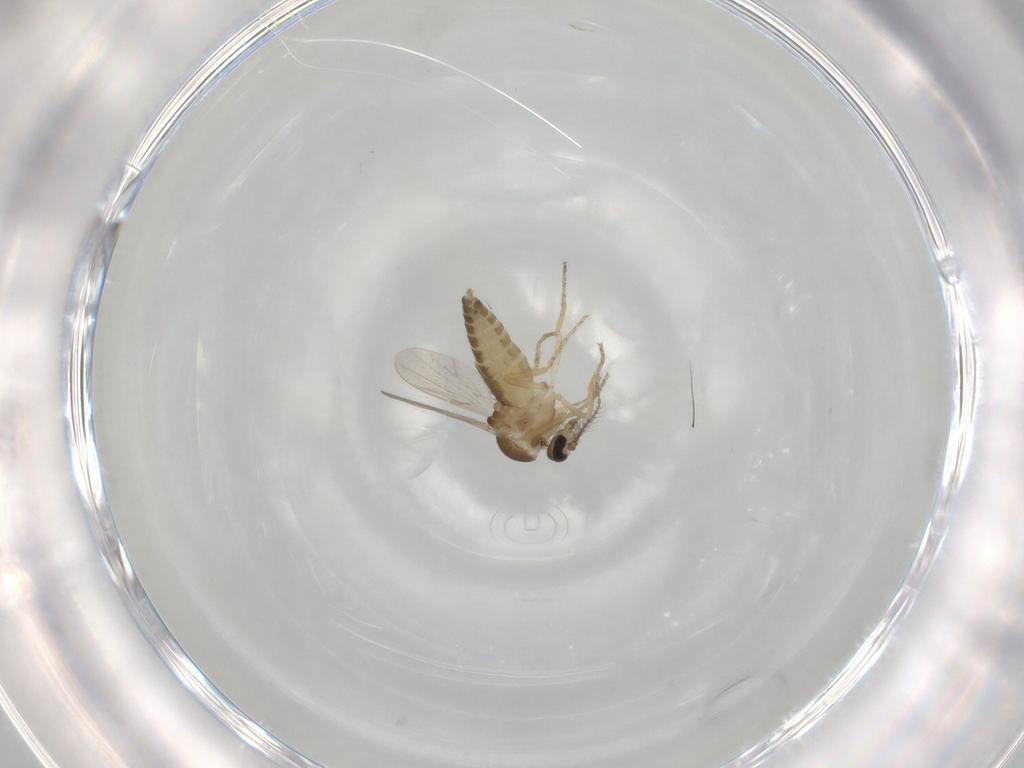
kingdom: Animalia
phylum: Arthropoda
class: Insecta
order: Diptera
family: Ceratopogonidae
